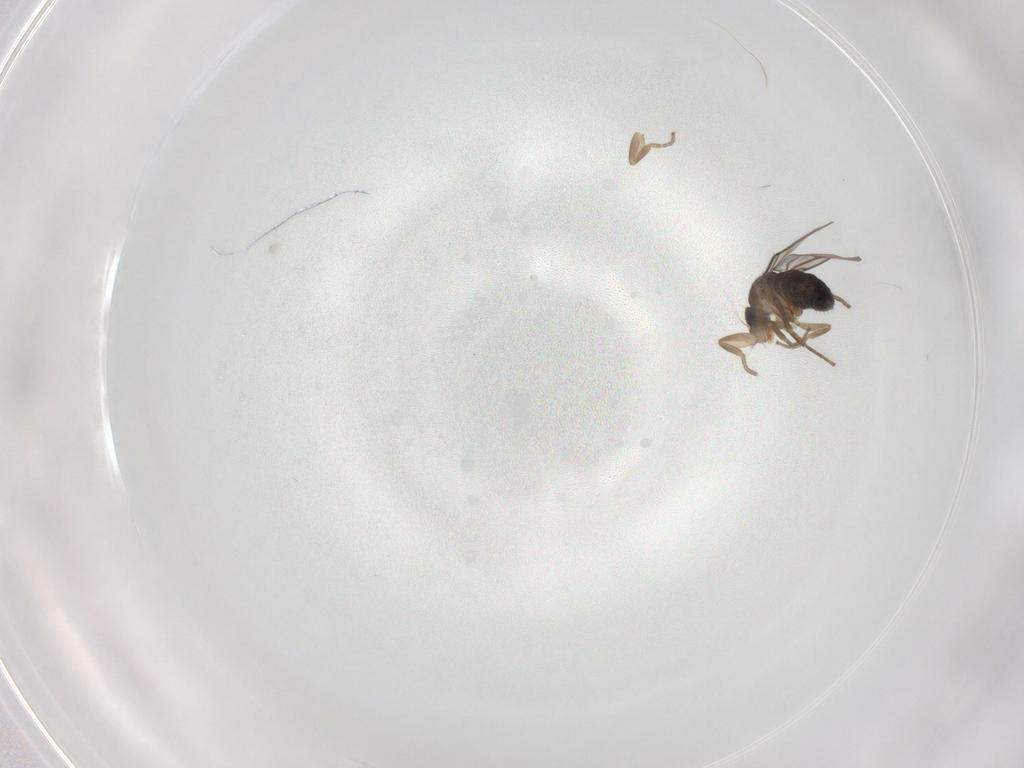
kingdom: Animalia
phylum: Arthropoda
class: Insecta
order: Diptera
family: Phoridae
